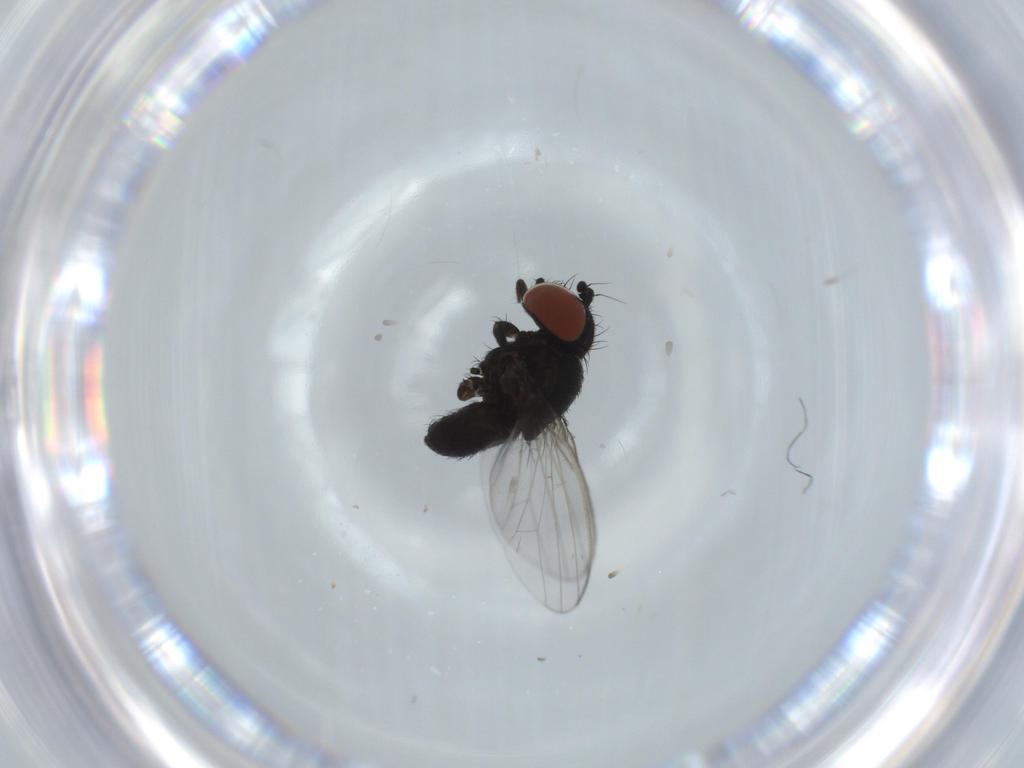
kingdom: Animalia
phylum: Arthropoda
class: Insecta
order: Diptera
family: Milichiidae
